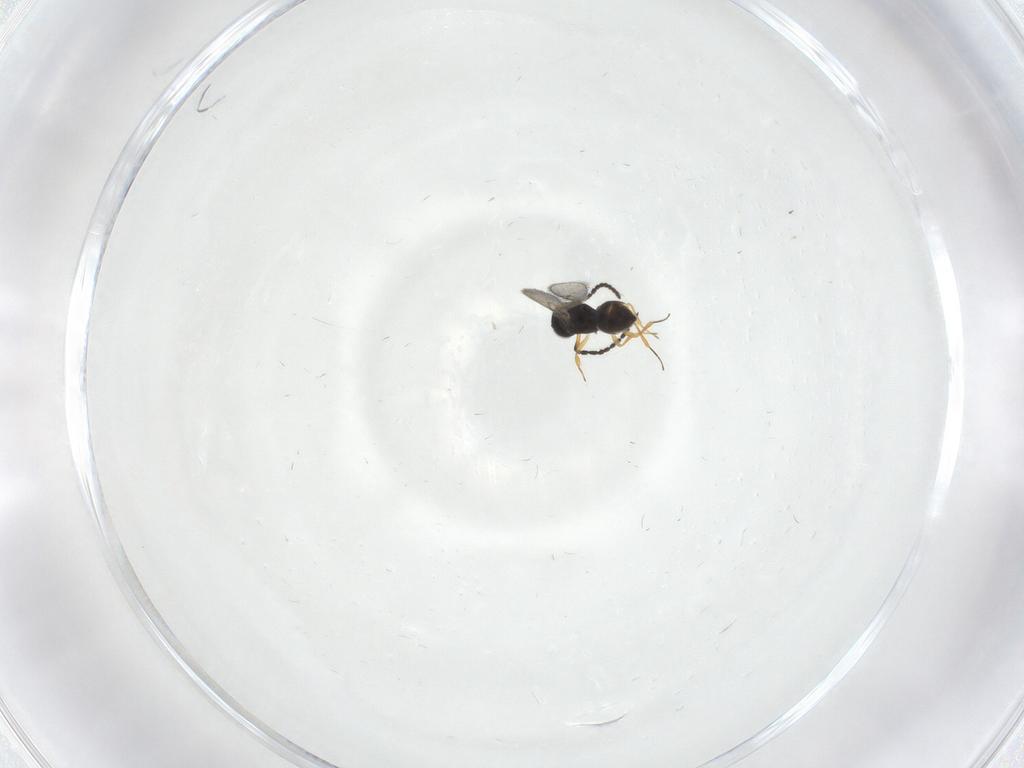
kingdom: Animalia
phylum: Arthropoda
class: Insecta
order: Hymenoptera
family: Scelionidae
